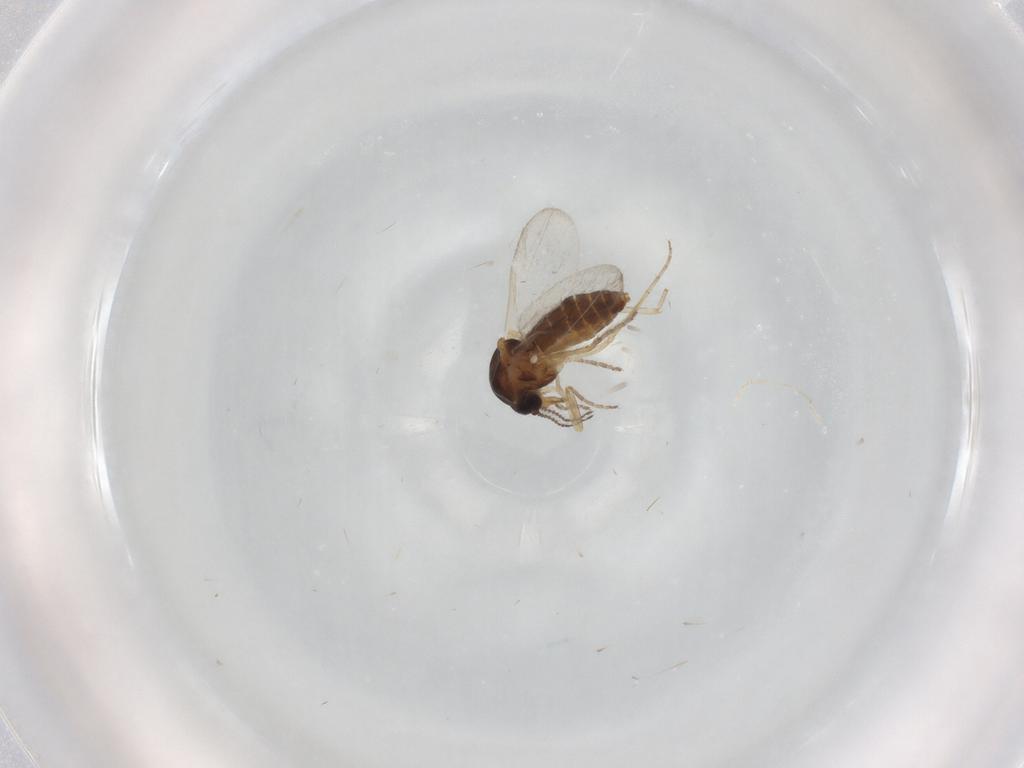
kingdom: Animalia
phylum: Arthropoda
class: Insecta
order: Diptera
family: Ceratopogonidae
